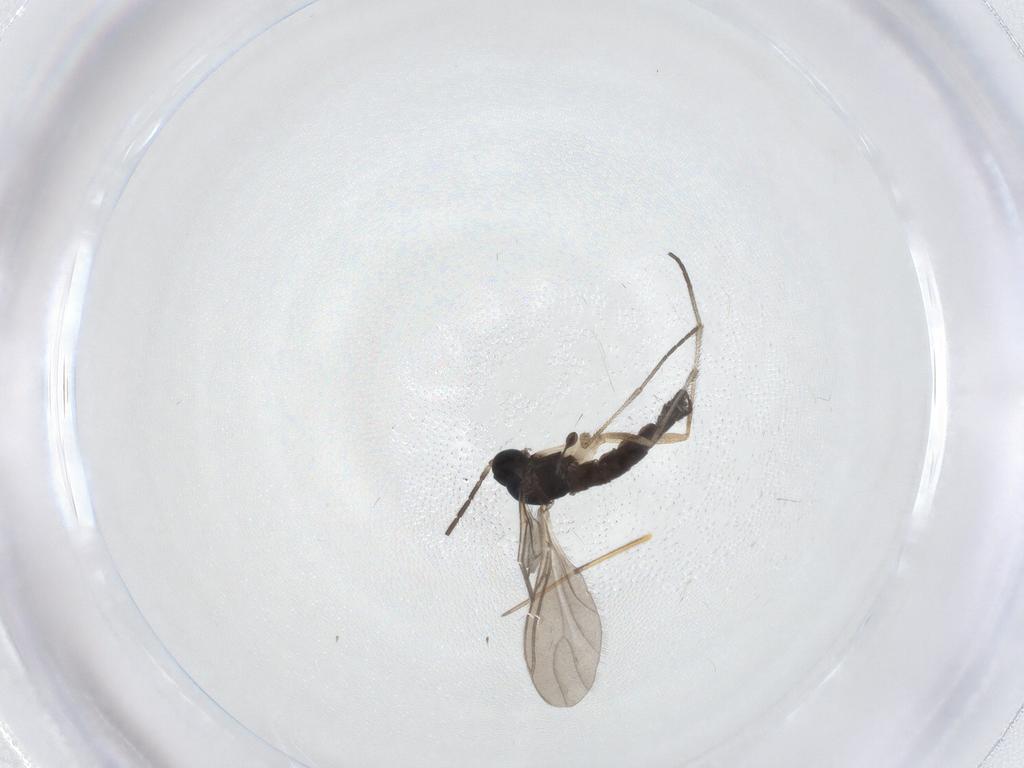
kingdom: Animalia
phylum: Arthropoda
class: Insecta
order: Diptera
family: Sciaridae
